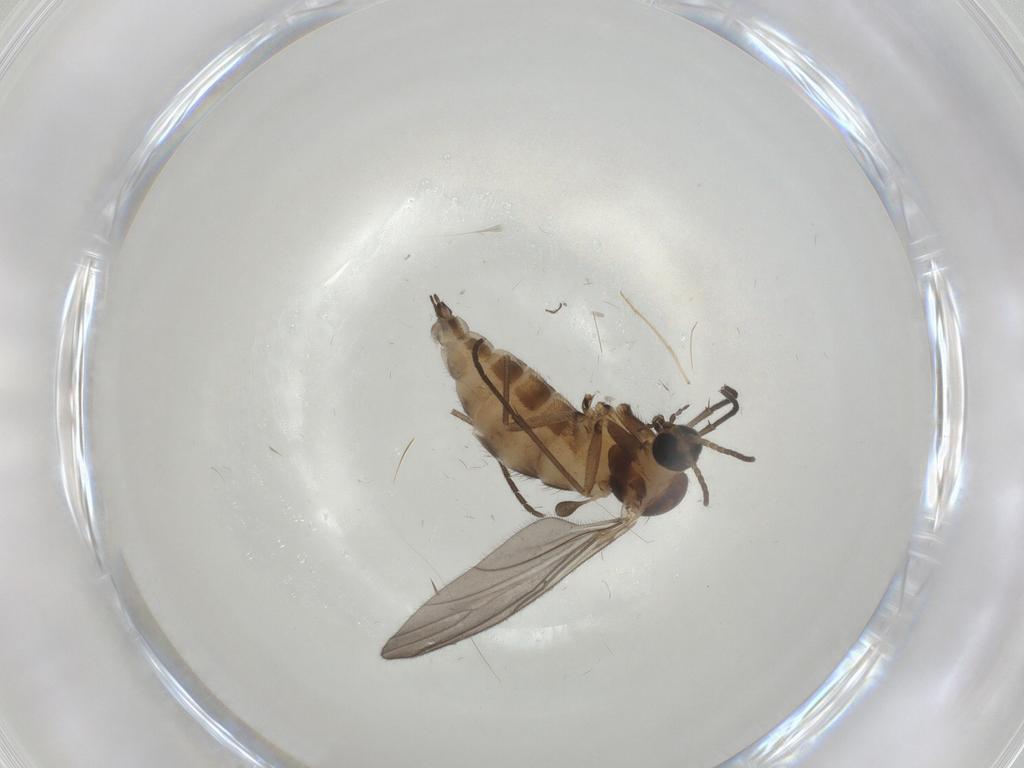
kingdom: Animalia
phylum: Arthropoda
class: Insecta
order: Diptera
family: Sciaridae
